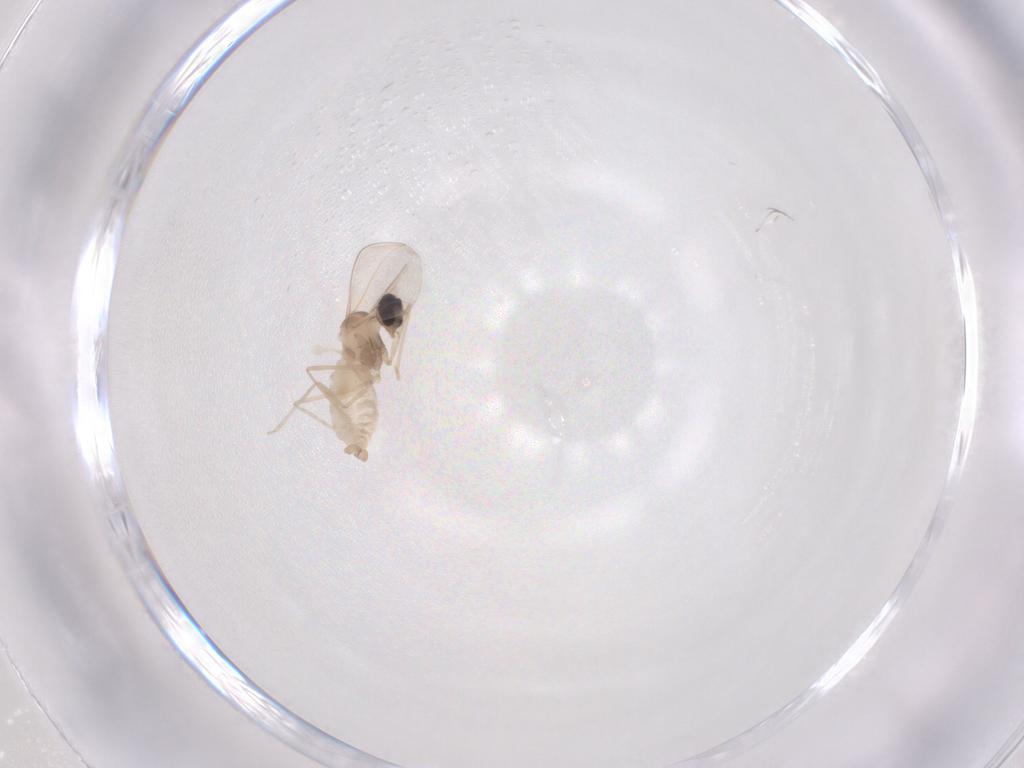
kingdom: Animalia
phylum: Arthropoda
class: Insecta
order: Diptera
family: Cecidomyiidae
